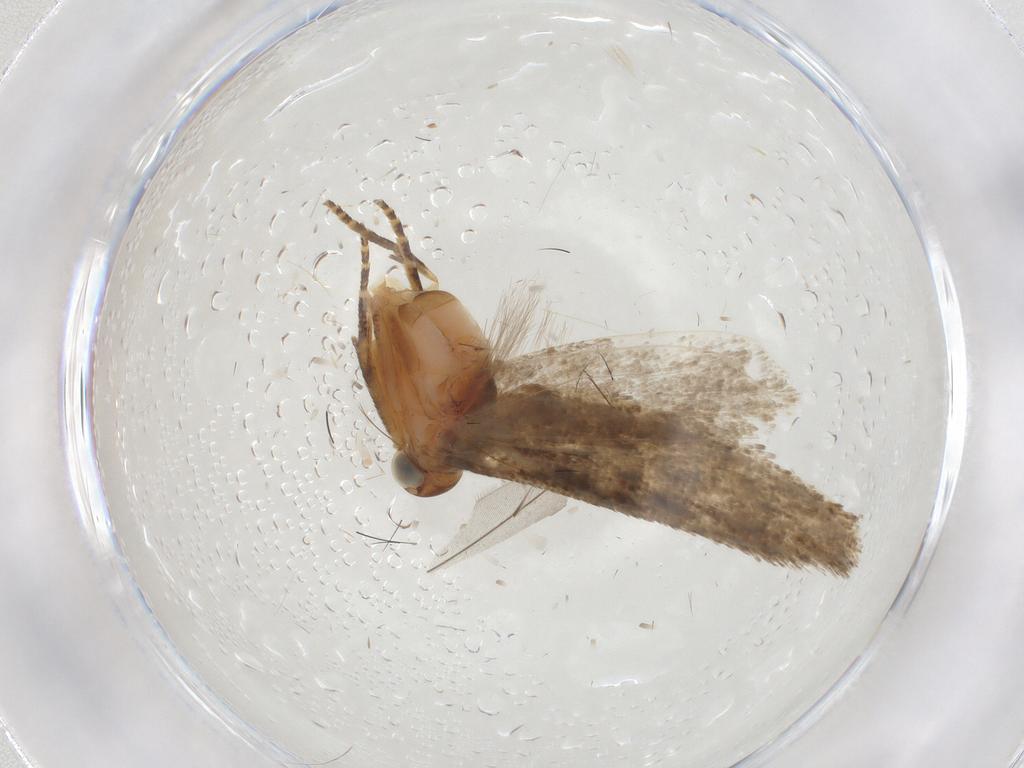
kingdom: Animalia
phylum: Arthropoda
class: Insecta
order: Lepidoptera
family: Gelechiidae
